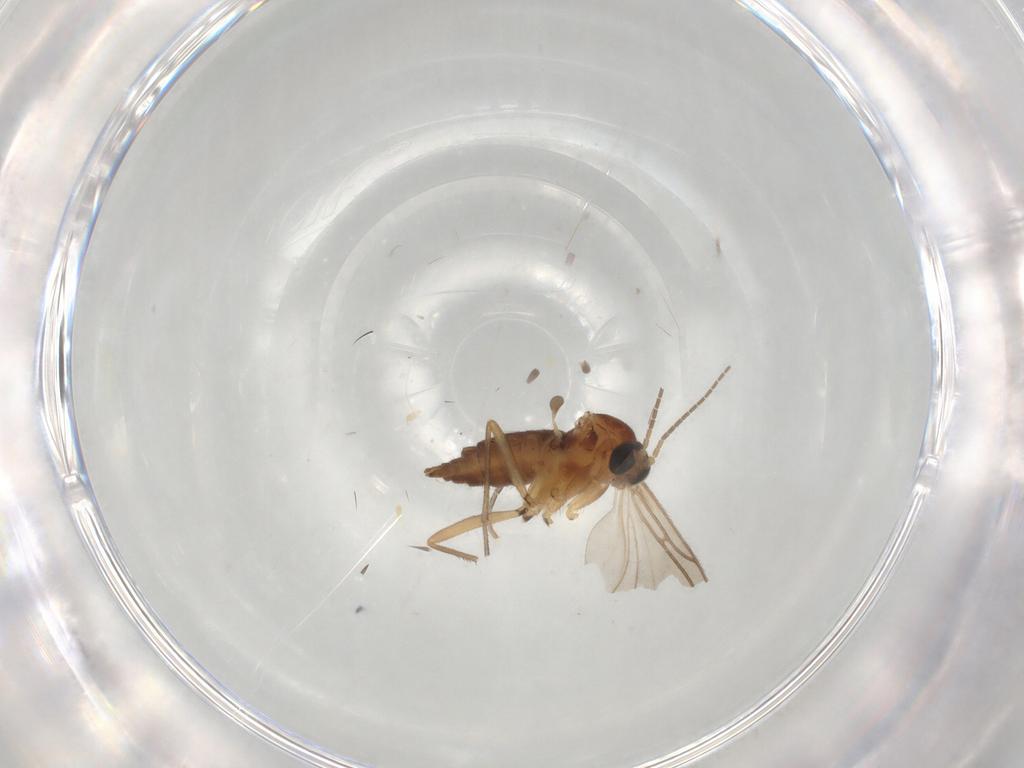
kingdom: Animalia
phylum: Arthropoda
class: Insecta
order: Diptera
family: Sciaridae
